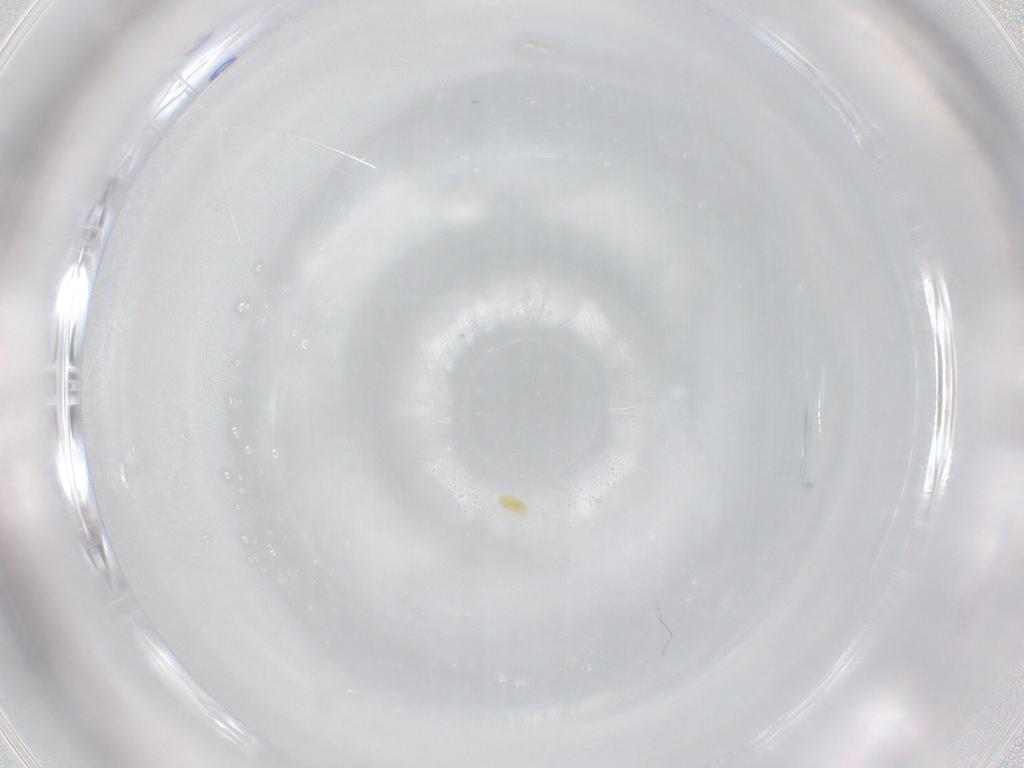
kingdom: Animalia
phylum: Arthropoda
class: Arachnida
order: Trombidiformes
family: Eupodidae
